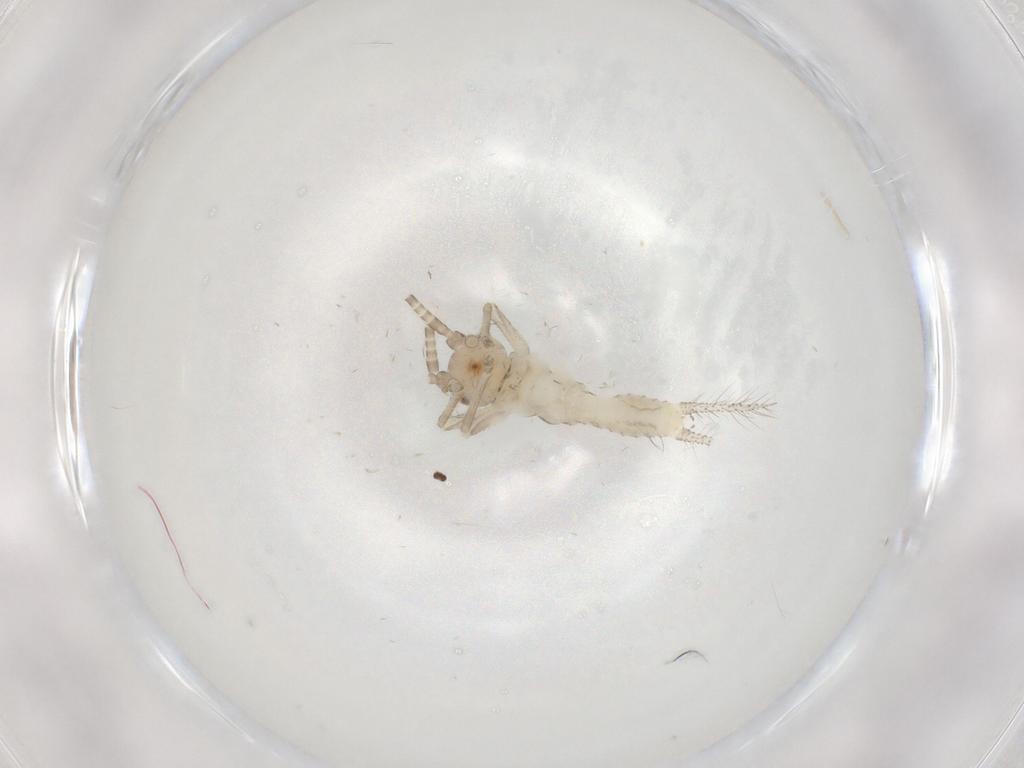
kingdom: Animalia
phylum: Arthropoda
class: Insecta
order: Orthoptera
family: Gryllidae
